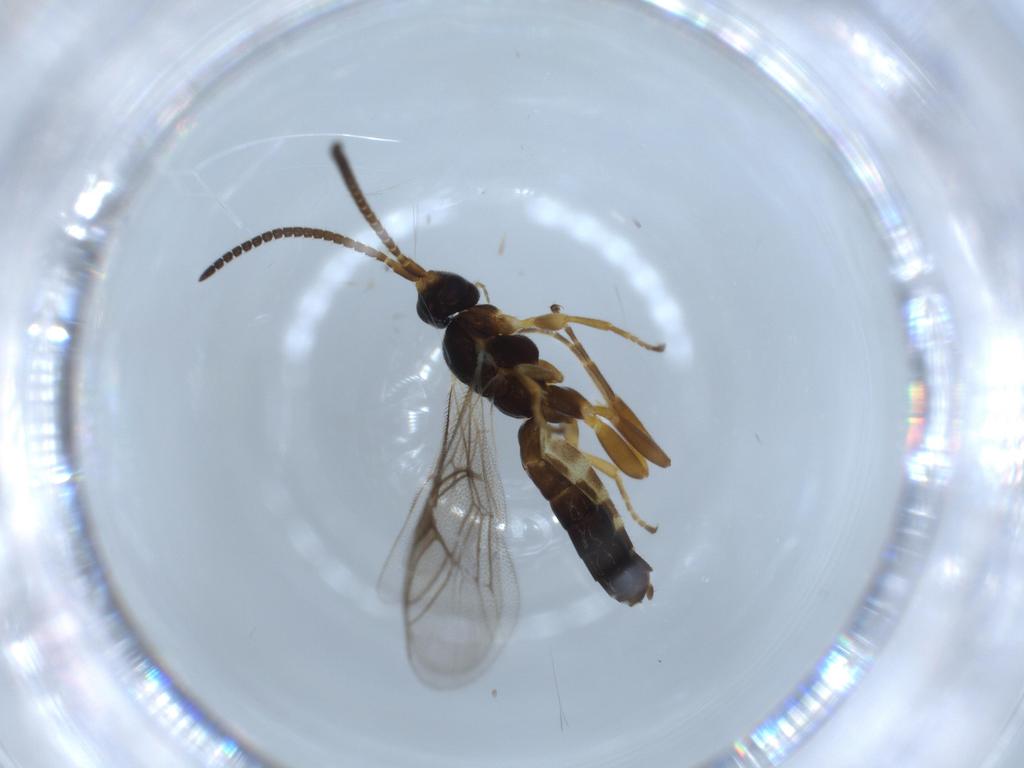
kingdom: Animalia
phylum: Arthropoda
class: Insecta
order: Hymenoptera
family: Ichneumonidae
